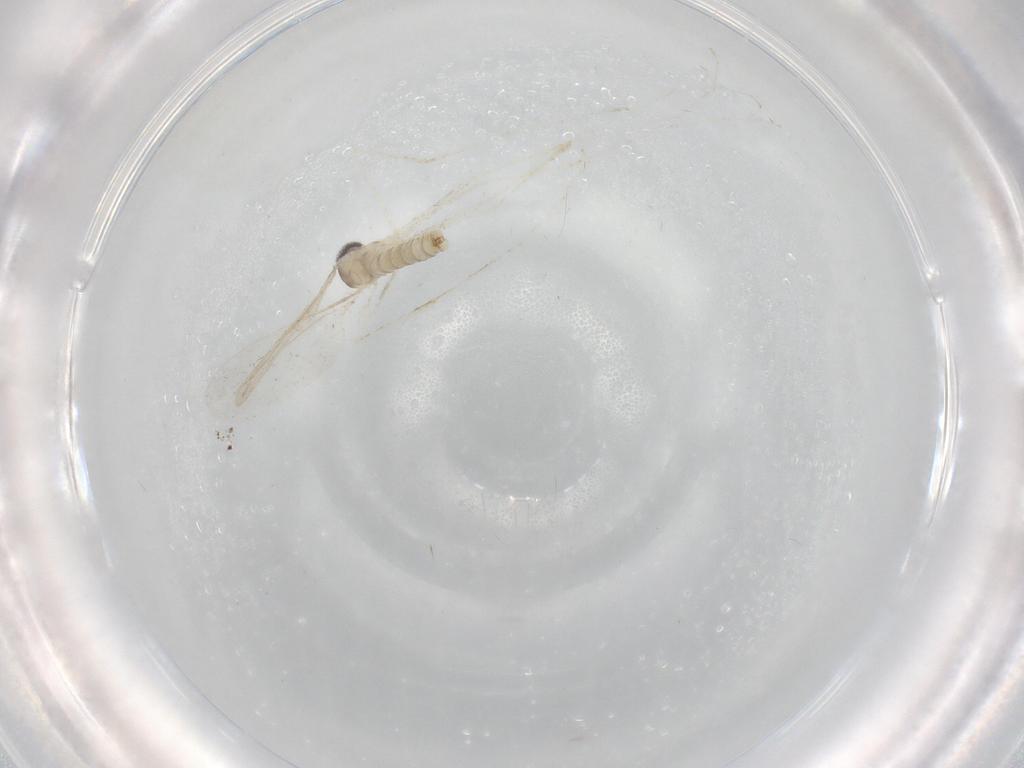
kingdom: Animalia
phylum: Arthropoda
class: Insecta
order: Diptera
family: Cecidomyiidae
